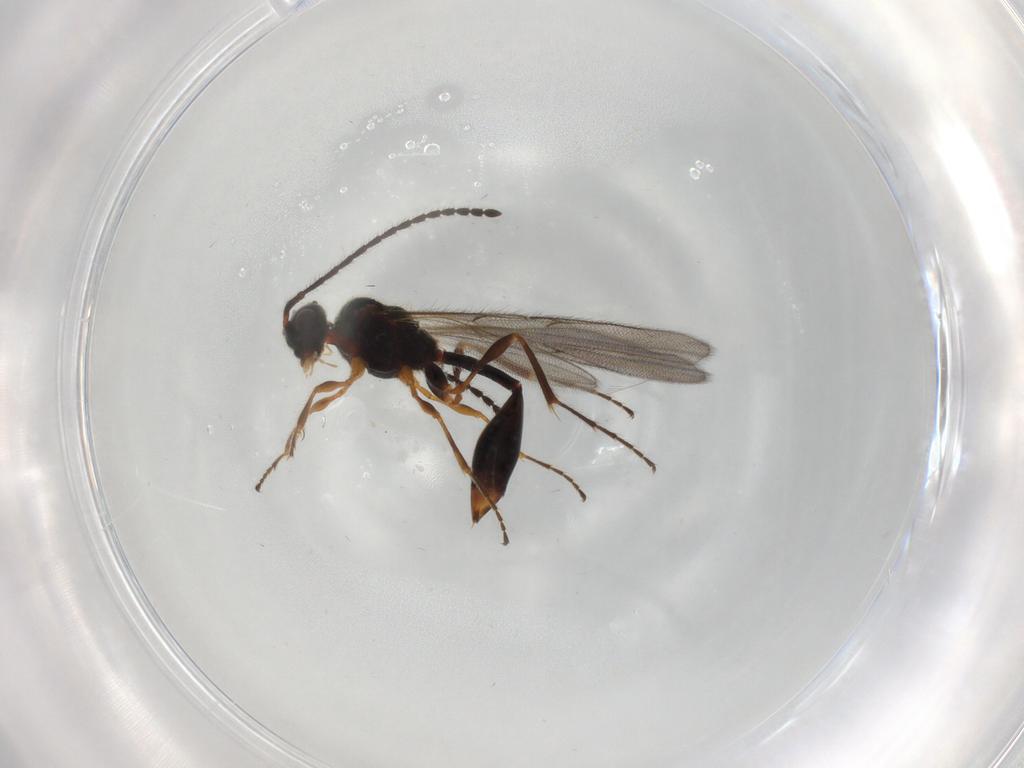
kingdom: Animalia
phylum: Arthropoda
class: Insecta
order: Hymenoptera
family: Diapriidae
